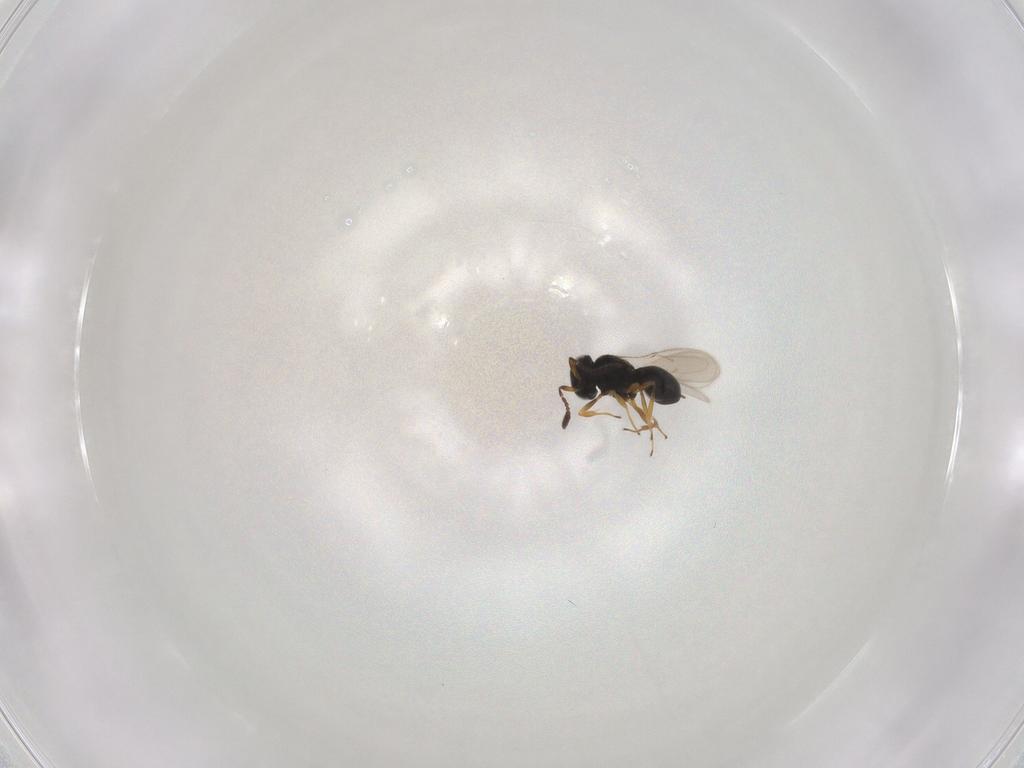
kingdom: Animalia
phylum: Arthropoda
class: Insecta
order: Hymenoptera
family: Scelionidae
